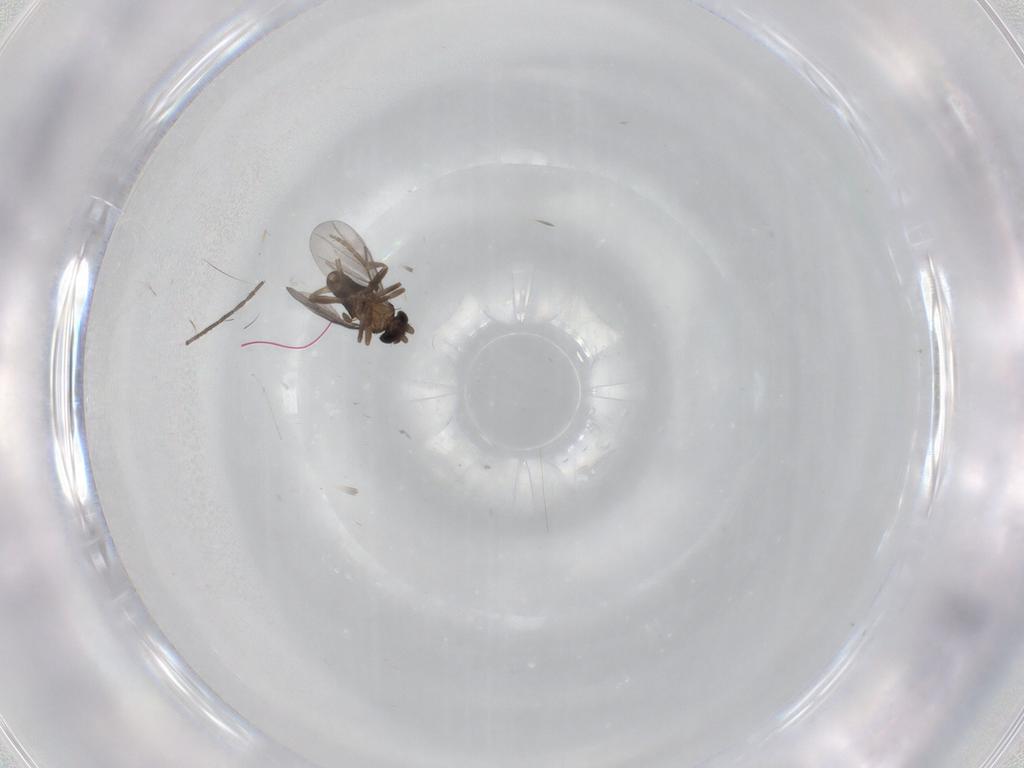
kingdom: Animalia
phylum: Arthropoda
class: Insecta
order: Diptera
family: Cecidomyiidae
